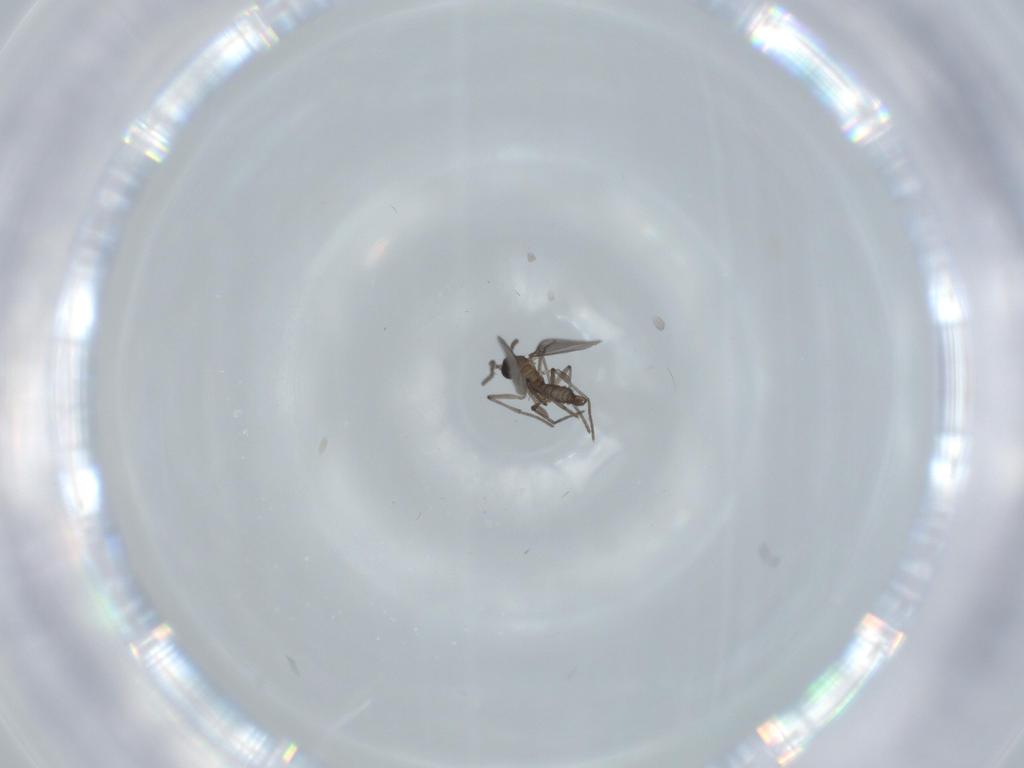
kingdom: Animalia
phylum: Arthropoda
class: Insecta
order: Diptera
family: Sciaridae
